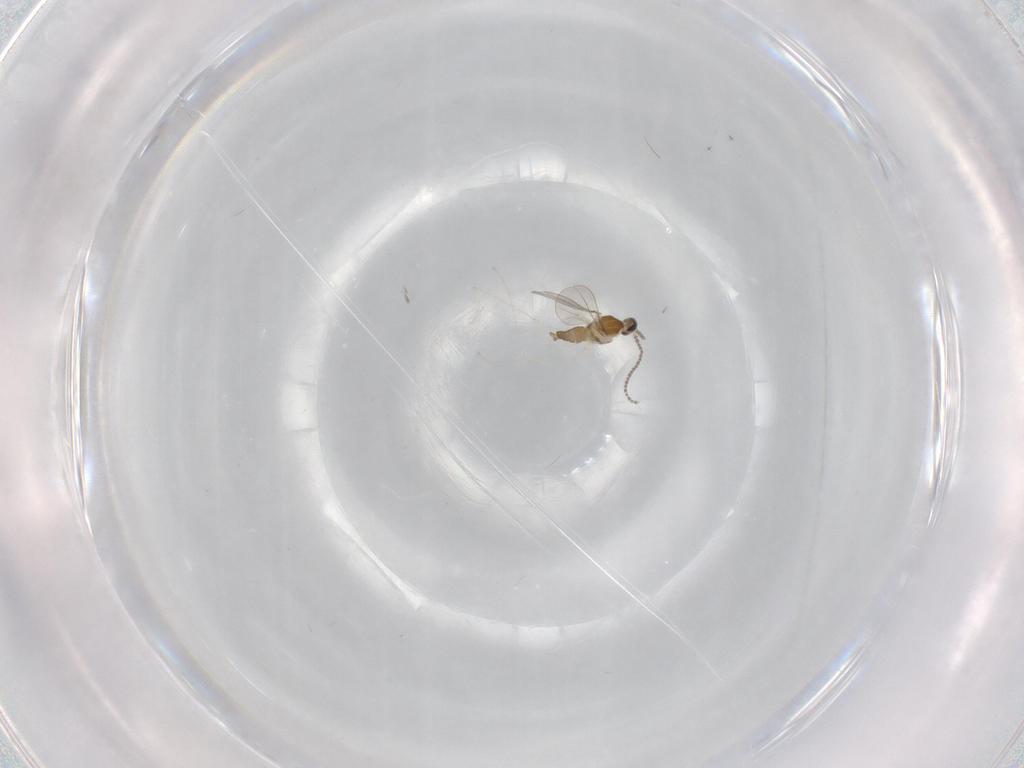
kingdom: Animalia
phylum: Arthropoda
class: Insecta
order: Diptera
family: Cecidomyiidae
